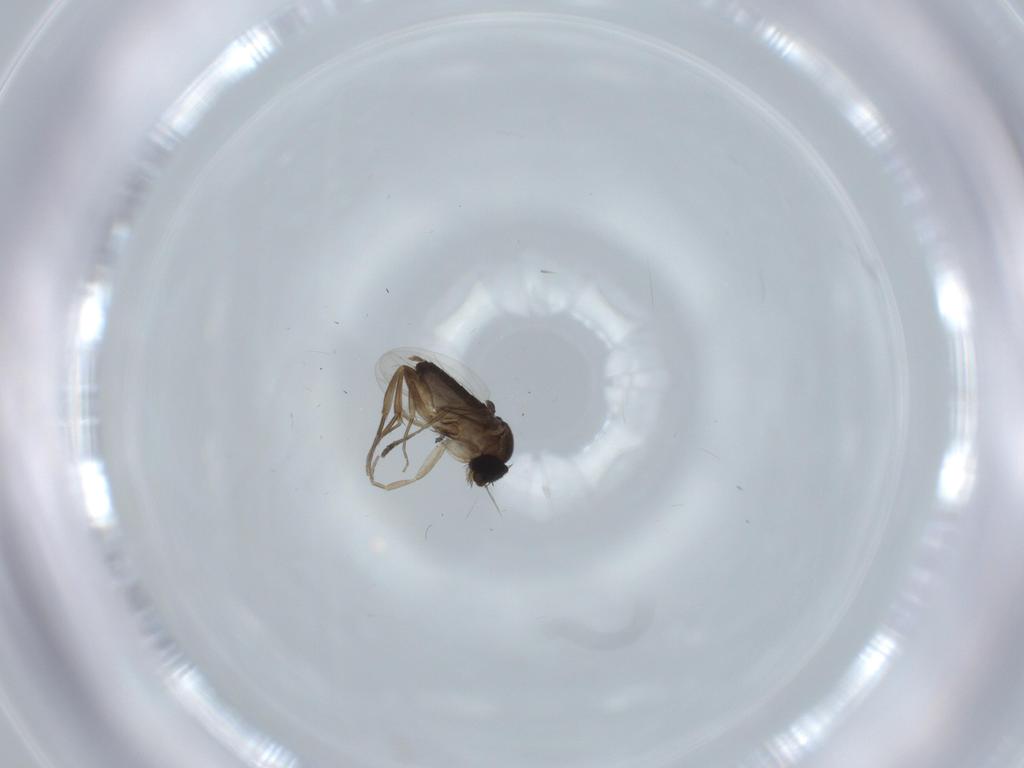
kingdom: Animalia
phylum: Arthropoda
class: Insecta
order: Diptera
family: Phoridae
